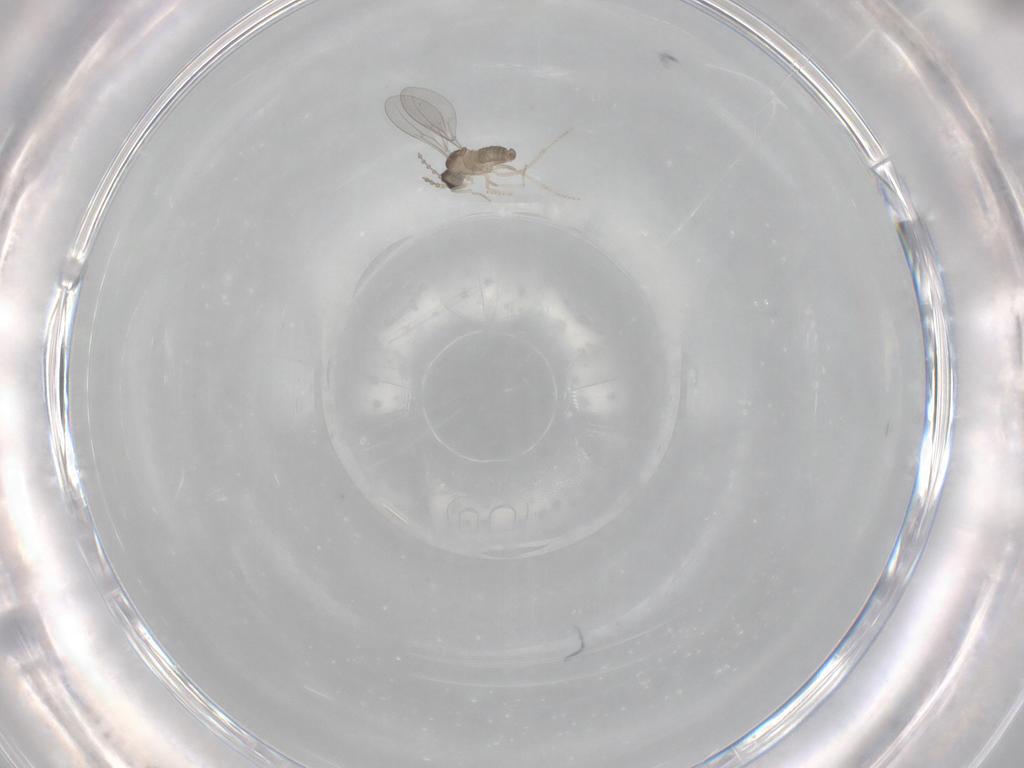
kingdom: Animalia
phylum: Arthropoda
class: Insecta
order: Diptera
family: Cecidomyiidae
